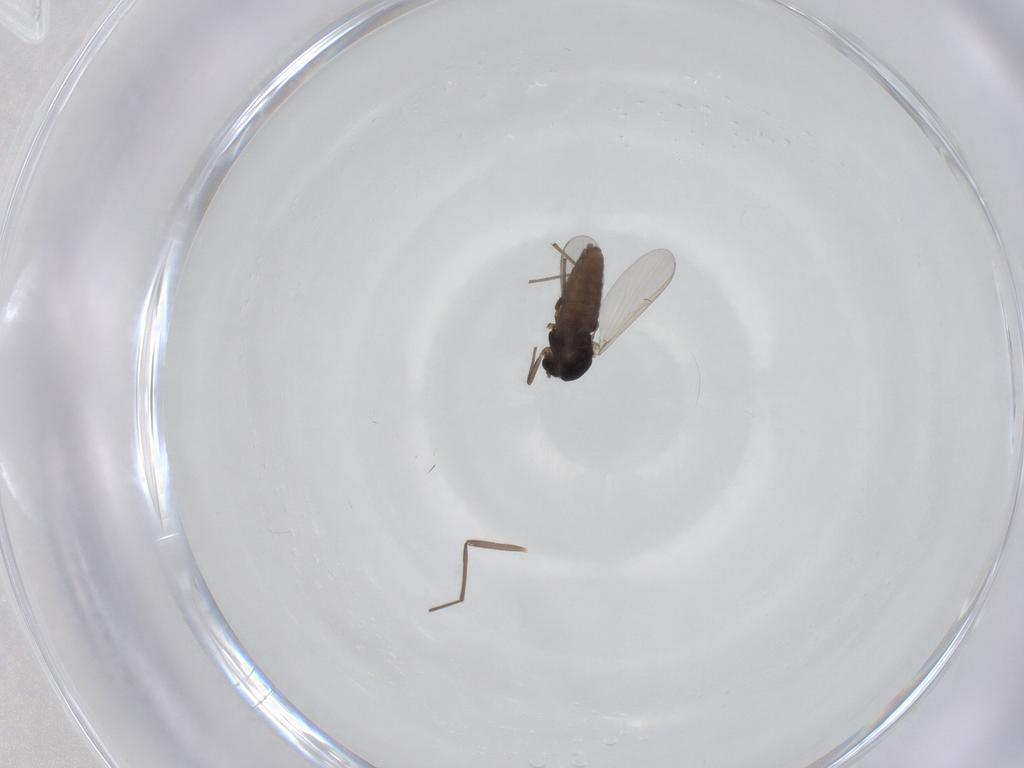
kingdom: Animalia
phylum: Arthropoda
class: Insecta
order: Diptera
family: Chironomidae
